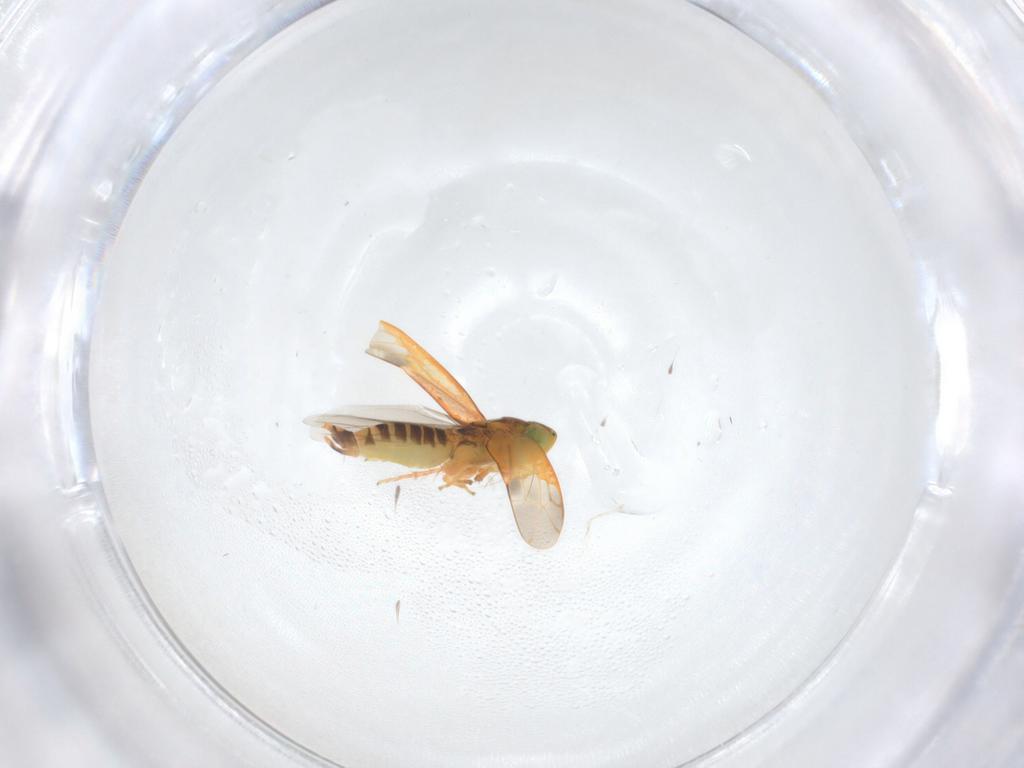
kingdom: Animalia
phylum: Arthropoda
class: Insecta
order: Hemiptera
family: Cicadellidae
